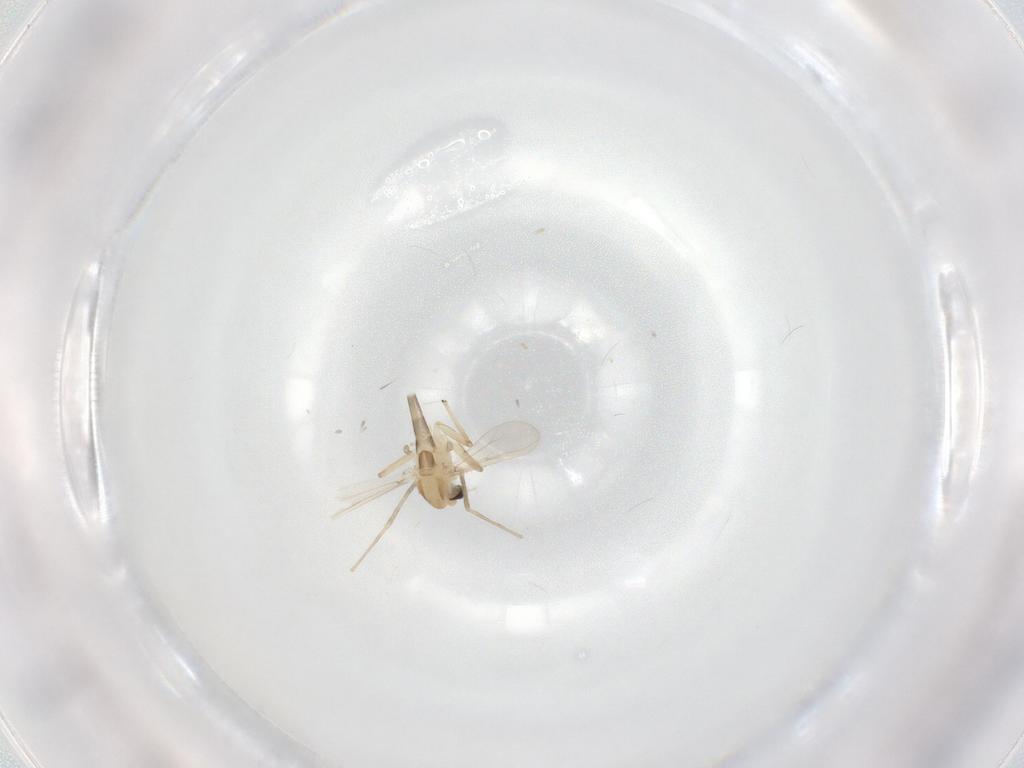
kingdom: Animalia
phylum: Arthropoda
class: Insecta
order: Diptera
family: Chironomidae
